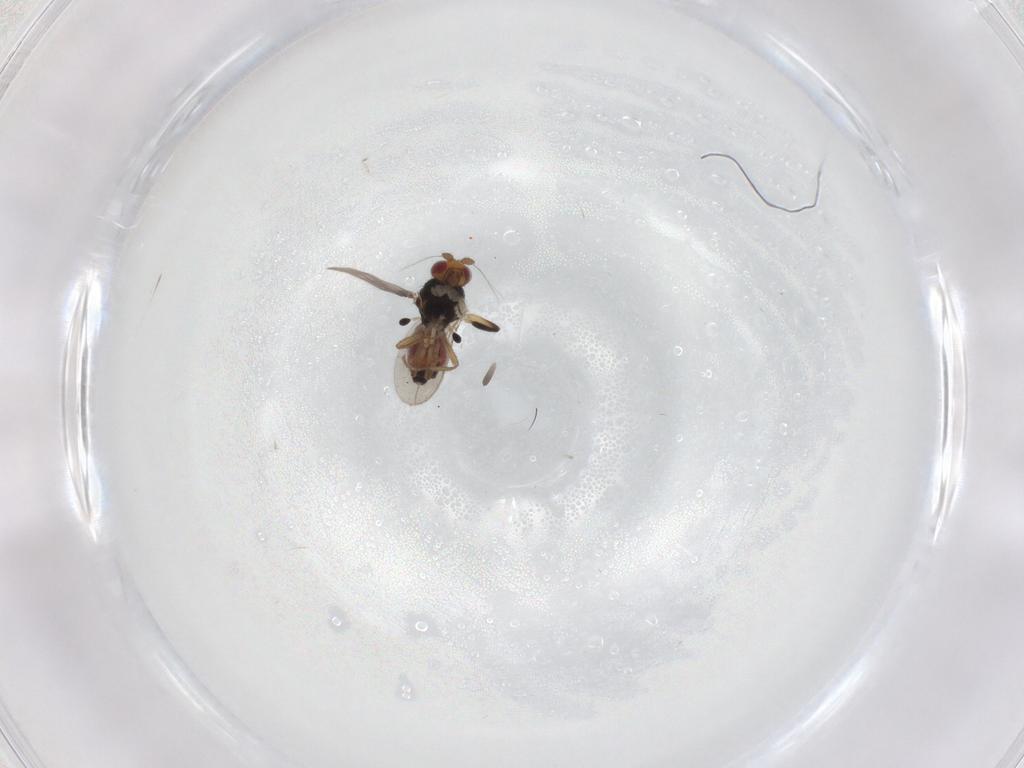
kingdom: Animalia
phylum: Arthropoda
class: Insecta
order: Diptera
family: Sphaeroceridae
